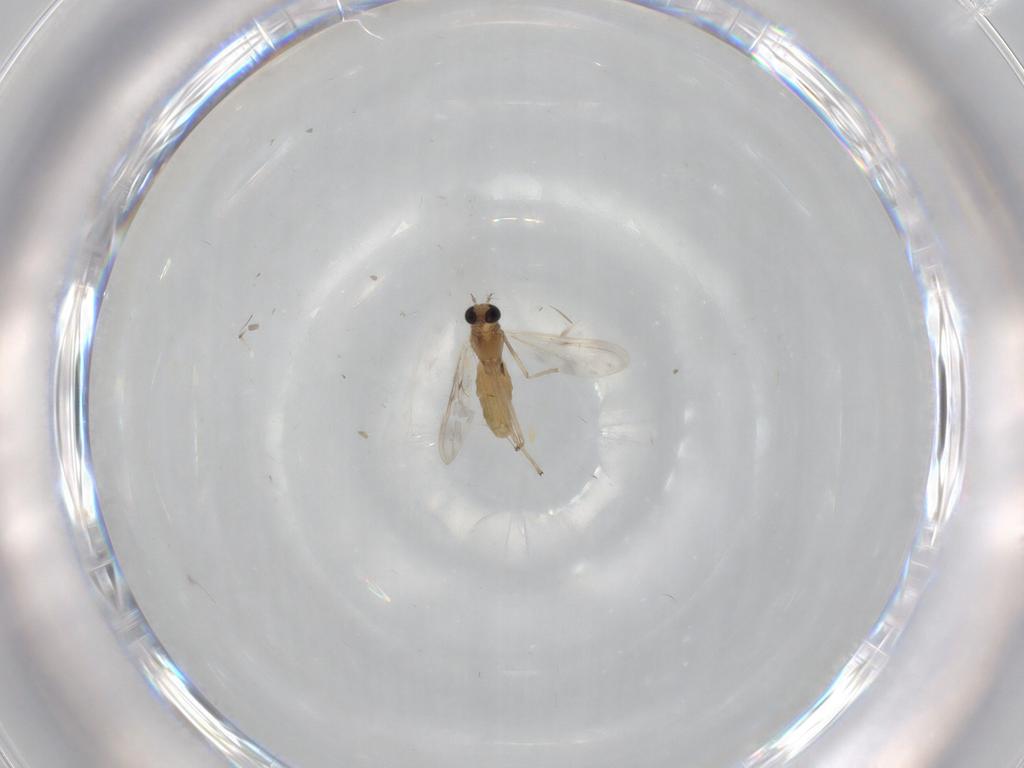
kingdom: Animalia
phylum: Arthropoda
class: Insecta
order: Diptera
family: Chironomidae
